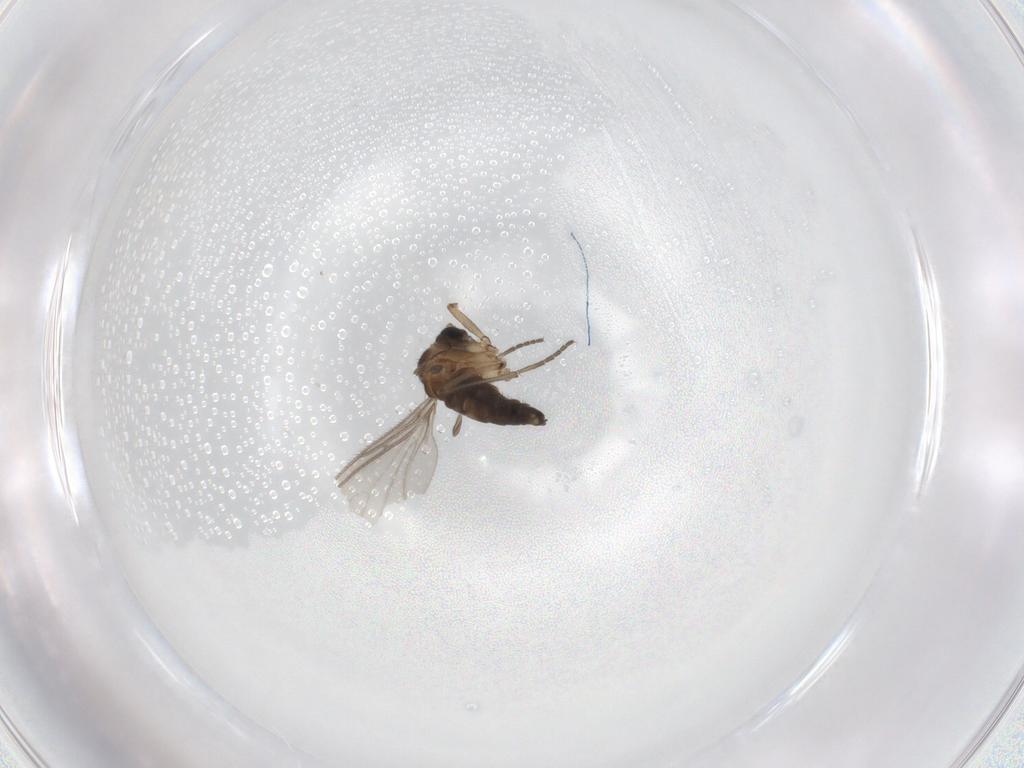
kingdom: Animalia
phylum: Arthropoda
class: Insecta
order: Diptera
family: Sciaridae
